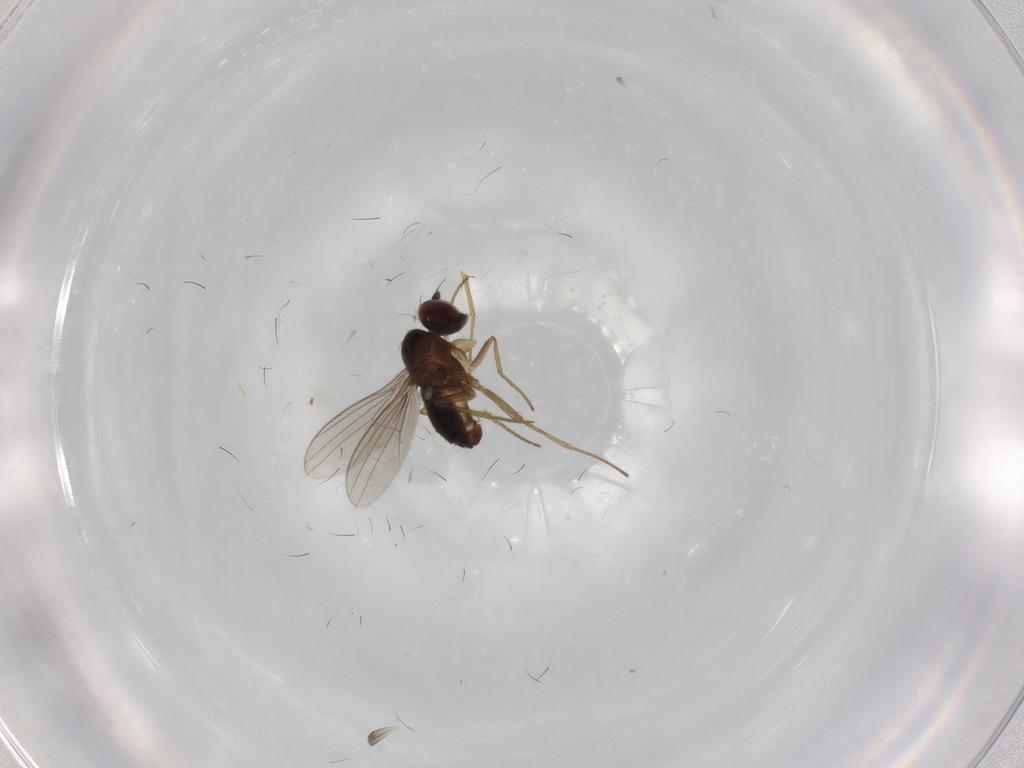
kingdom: Animalia
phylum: Arthropoda
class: Insecta
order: Diptera
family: Dolichopodidae
